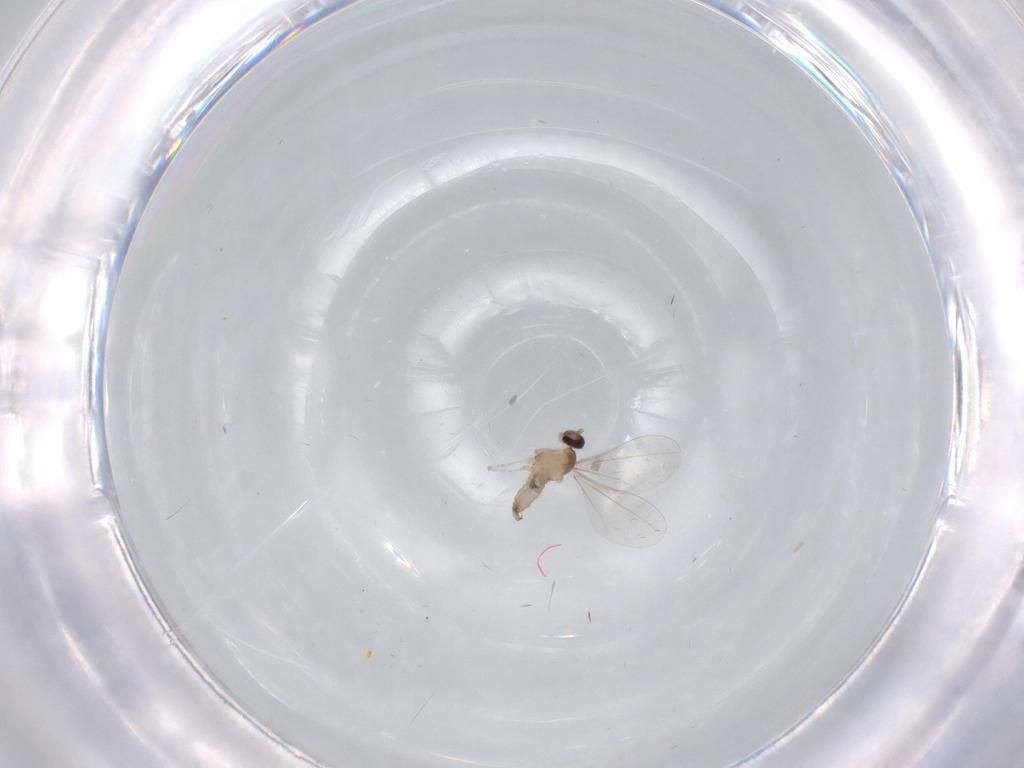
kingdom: Animalia
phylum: Arthropoda
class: Insecta
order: Diptera
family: Cecidomyiidae
